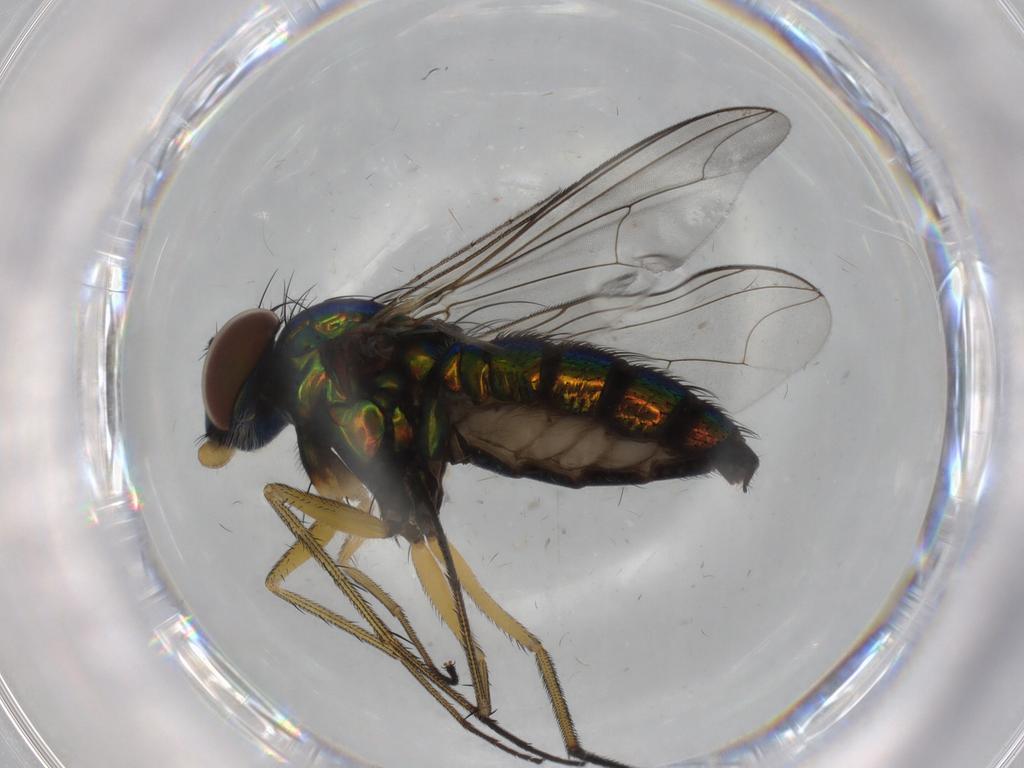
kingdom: Animalia
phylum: Arthropoda
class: Insecta
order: Diptera
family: Dolichopodidae
